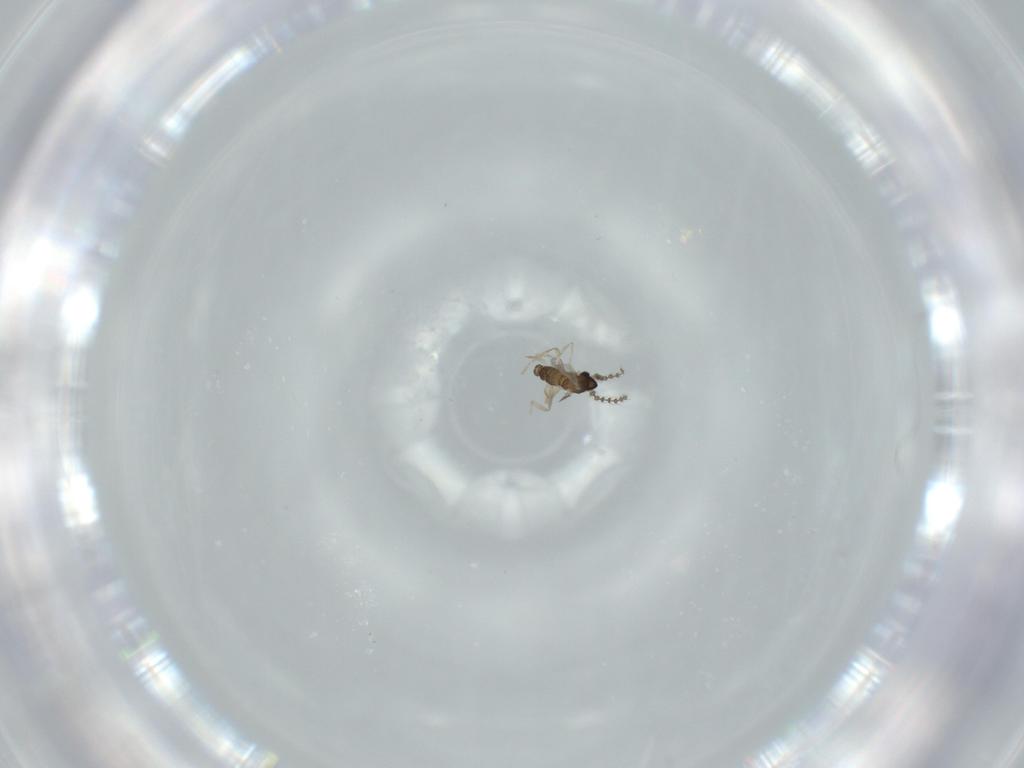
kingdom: Animalia
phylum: Arthropoda
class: Insecta
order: Diptera
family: Cecidomyiidae
